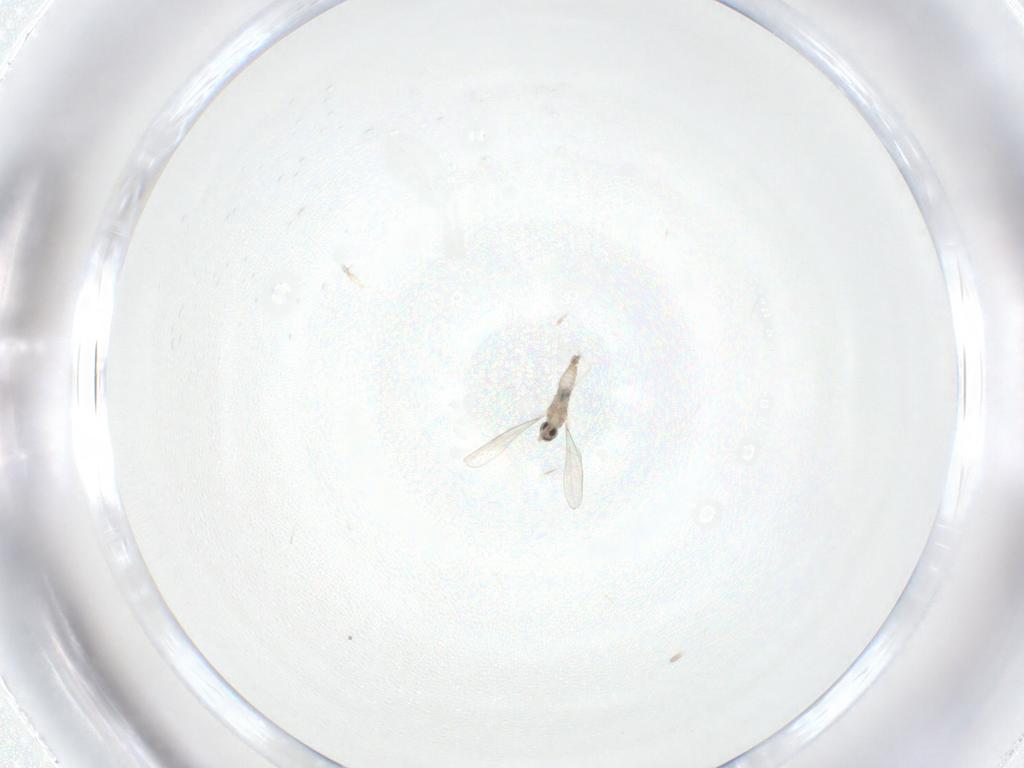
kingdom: Animalia
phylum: Arthropoda
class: Insecta
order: Diptera
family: Cecidomyiidae
